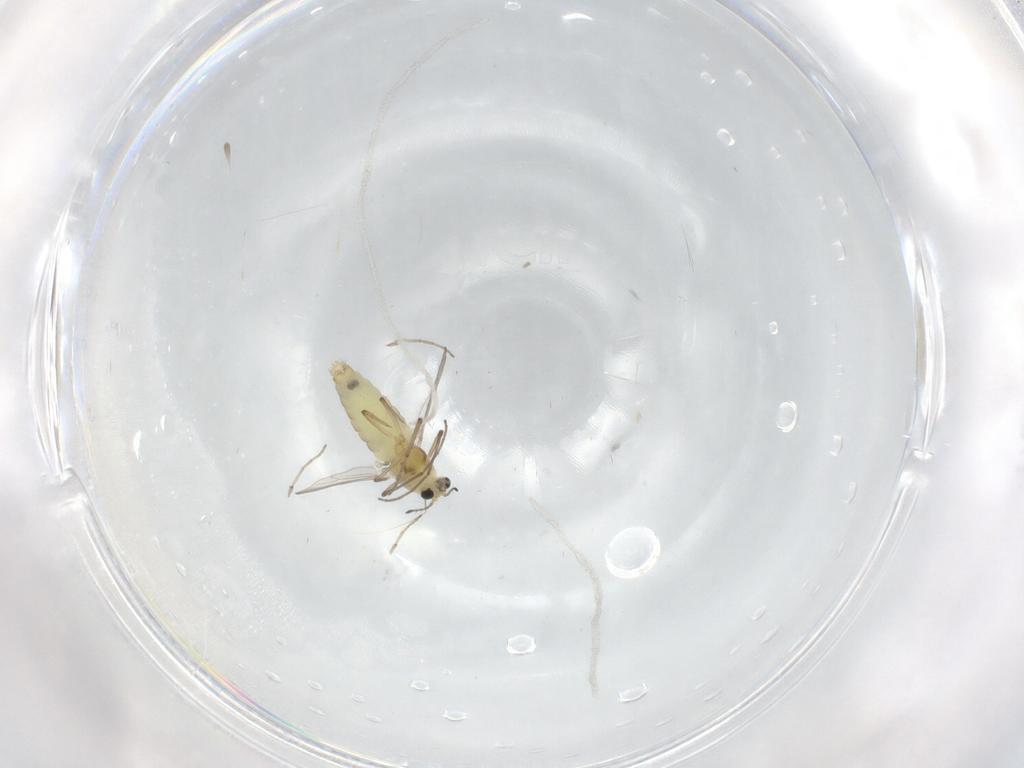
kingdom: Animalia
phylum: Arthropoda
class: Insecta
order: Diptera
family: Chironomidae
